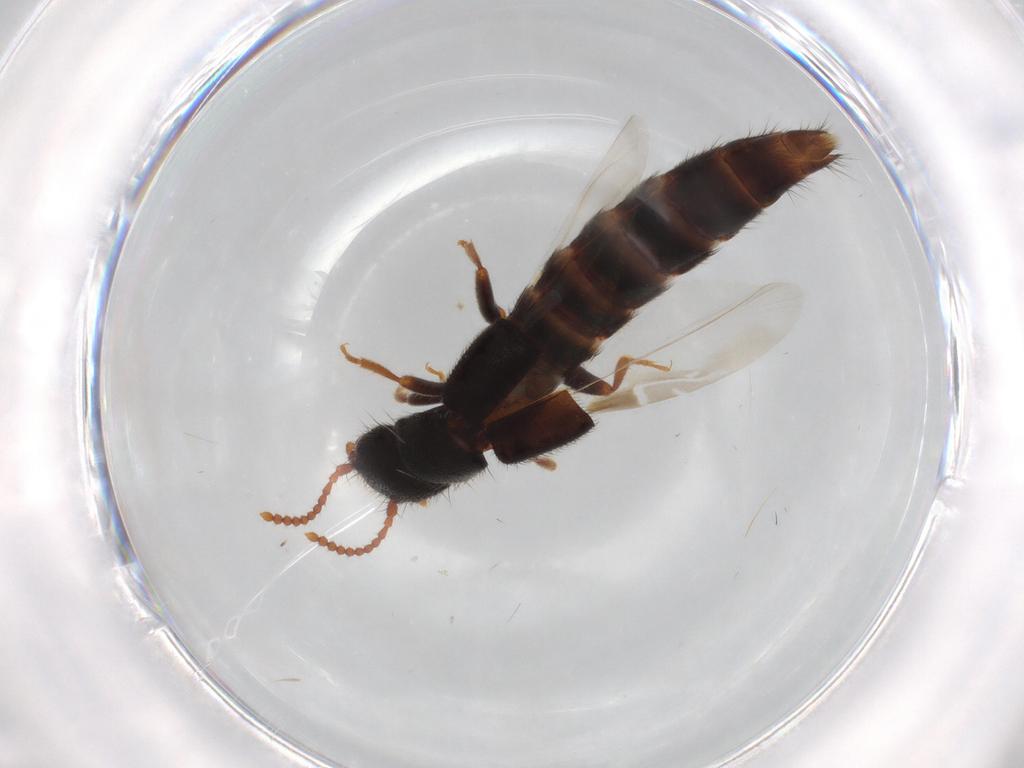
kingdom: Animalia
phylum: Arthropoda
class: Insecta
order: Coleoptera
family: Staphylinidae
